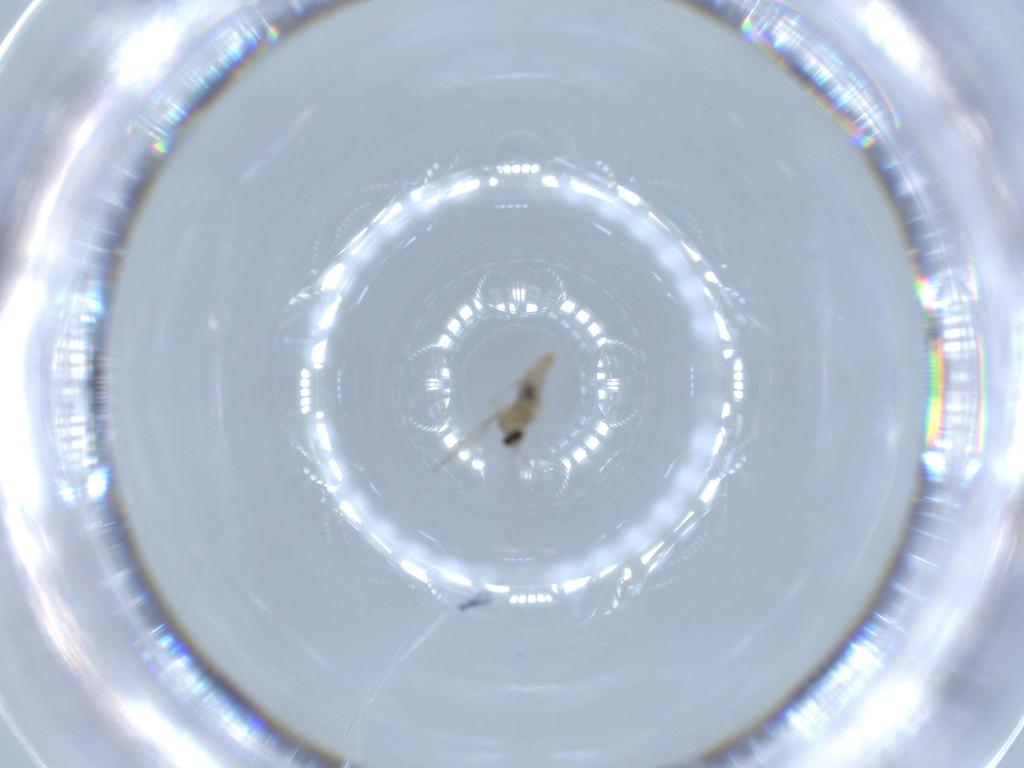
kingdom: Animalia
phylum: Arthropoda
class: Insecta
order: Diptera
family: Cecidomyiidae
